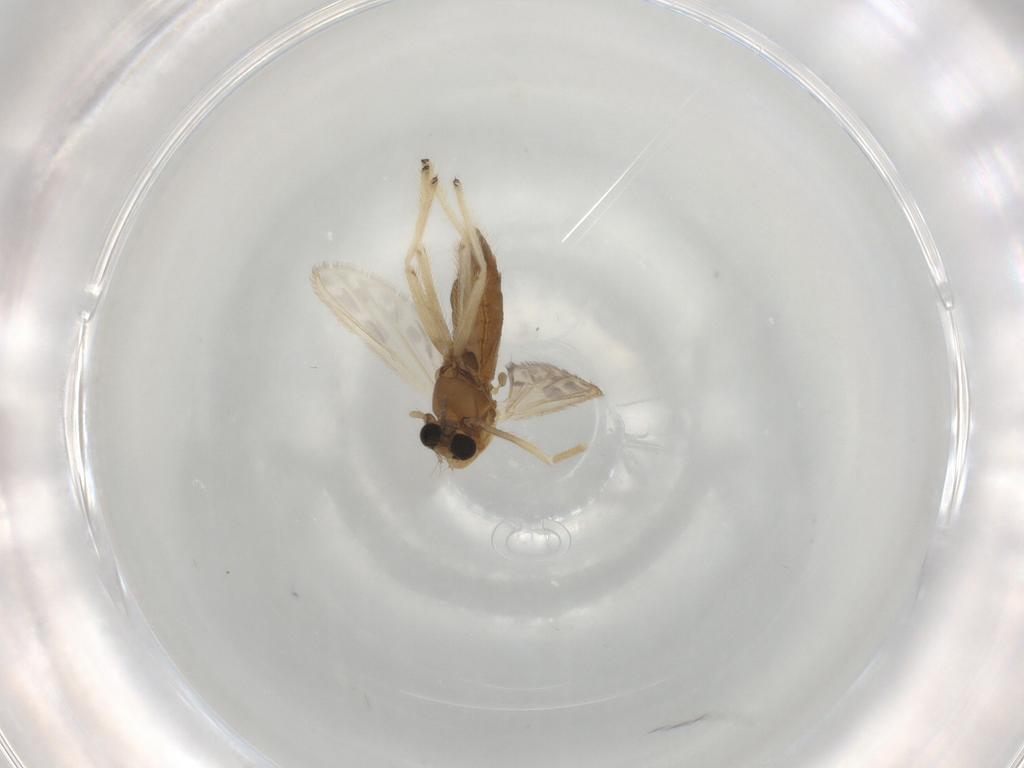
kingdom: Animalia
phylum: Arthropoda
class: Insecta
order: Diptera
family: Chironomidae
